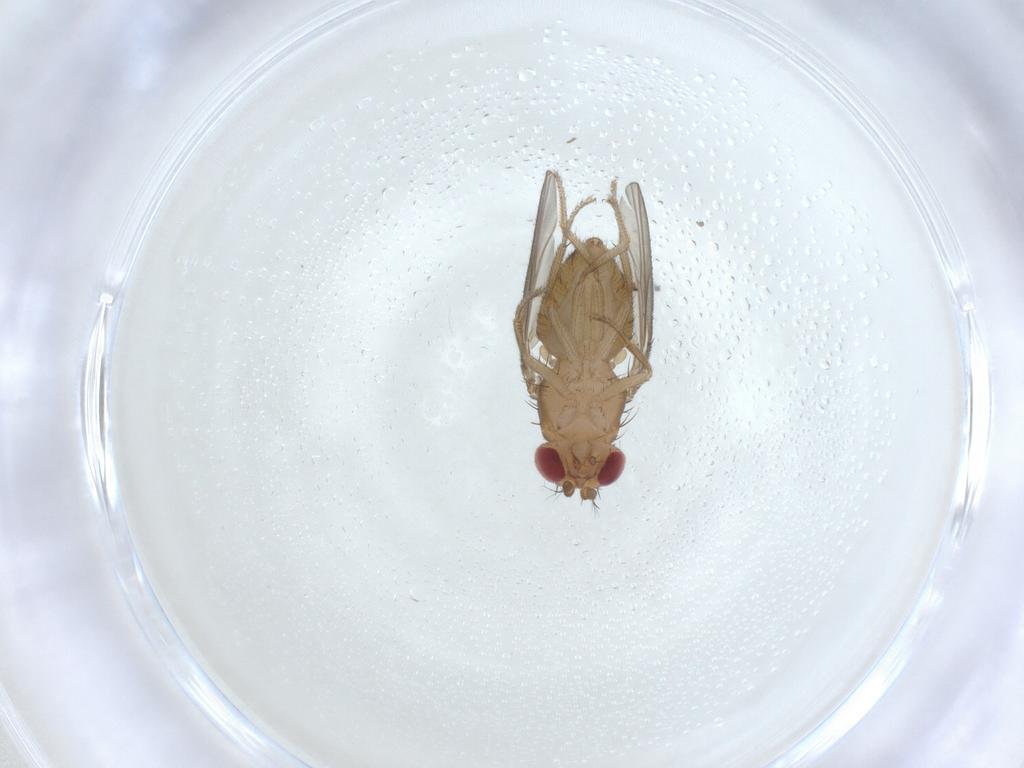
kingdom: Animalia
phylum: Arthropoda
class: Insecta
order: Diptera
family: Drosophilidae
